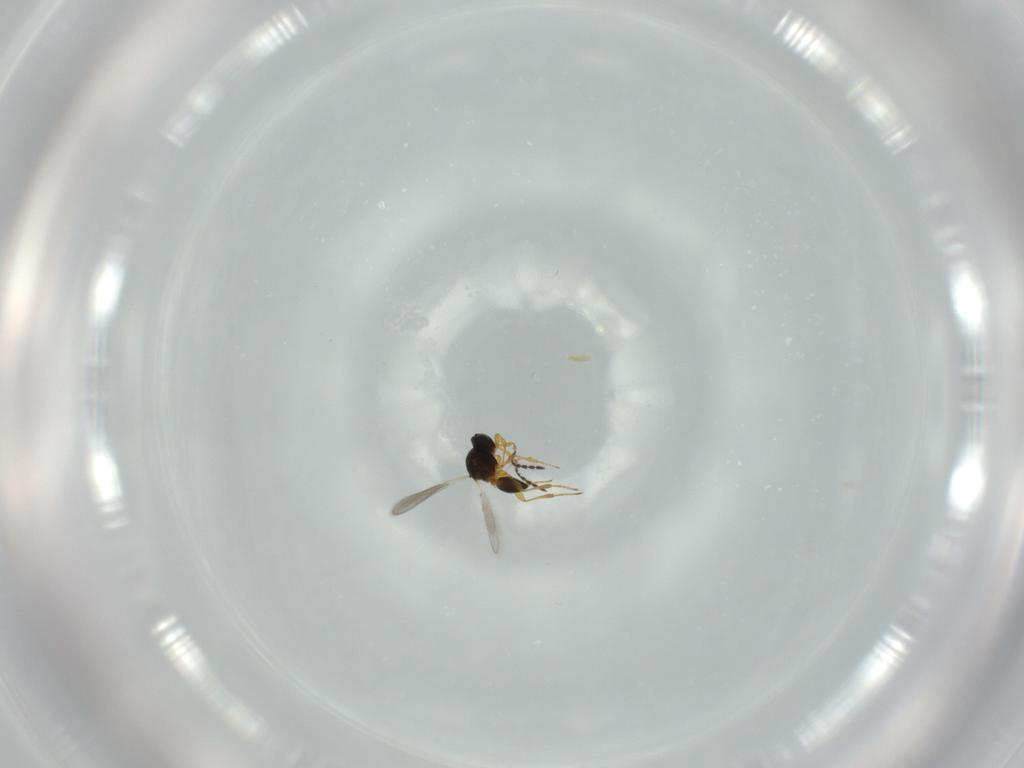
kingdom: Animalia
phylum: Arthropoda
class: Insecta
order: Hymenoptera
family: Platygastridae
